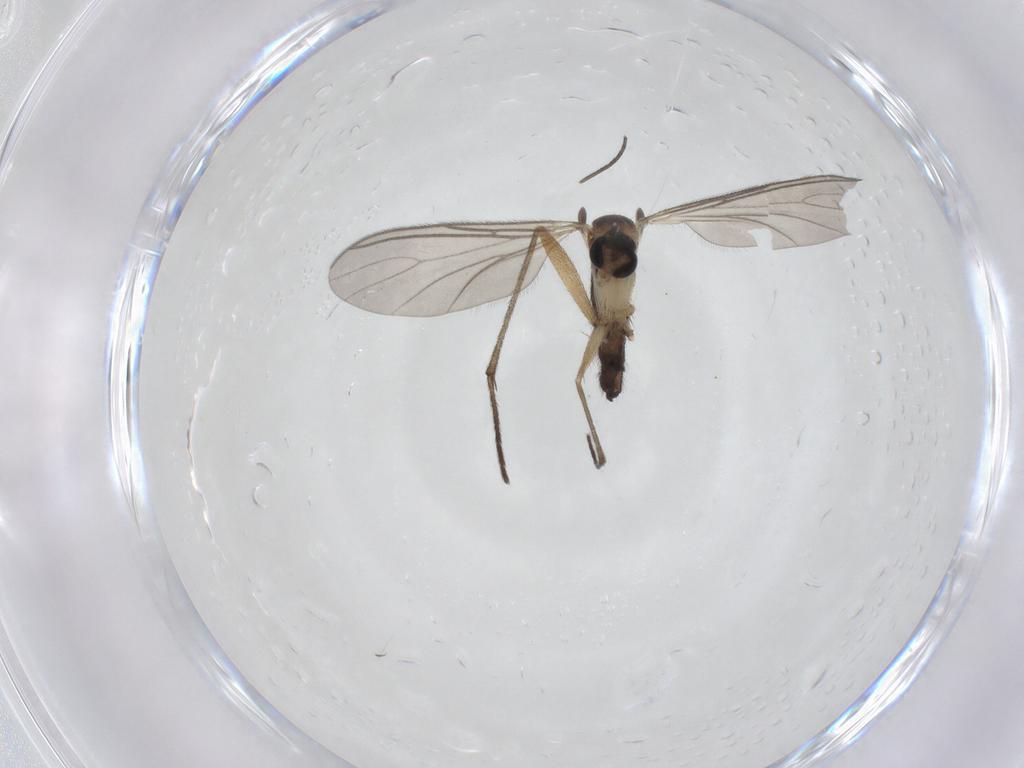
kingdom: Animalia
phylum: Arthropoda
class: Insecta
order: Diptera
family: Sciaridae
